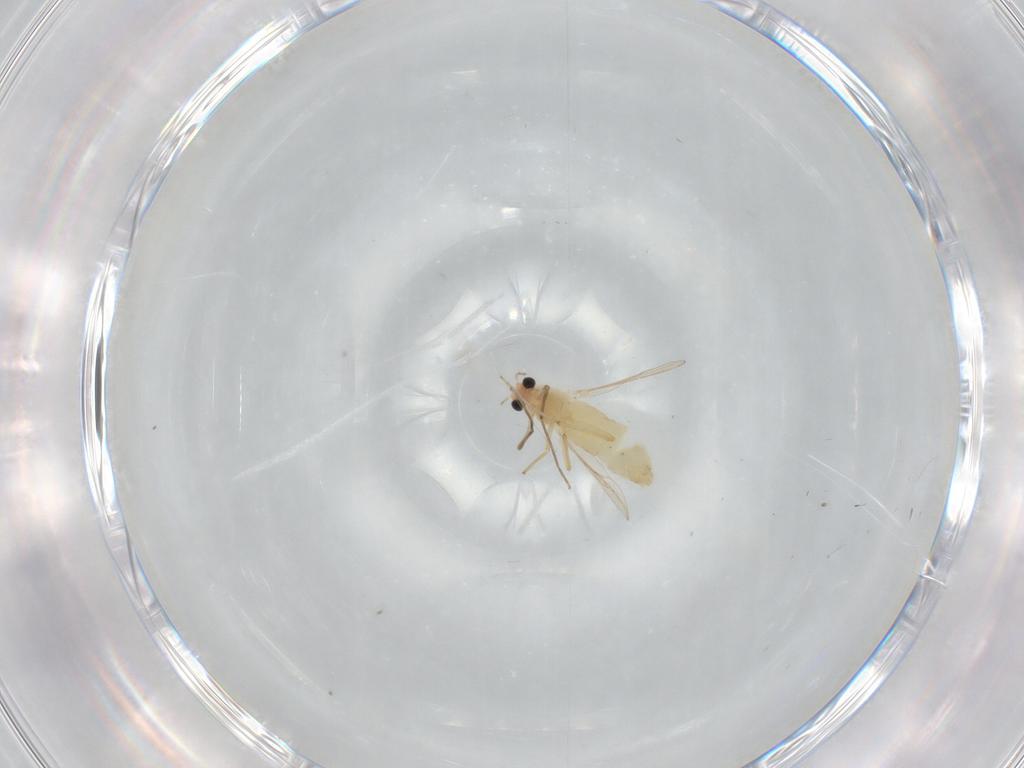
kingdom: Animalia
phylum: Arthropoda
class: Insecta
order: Diptera
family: Chironomidae
